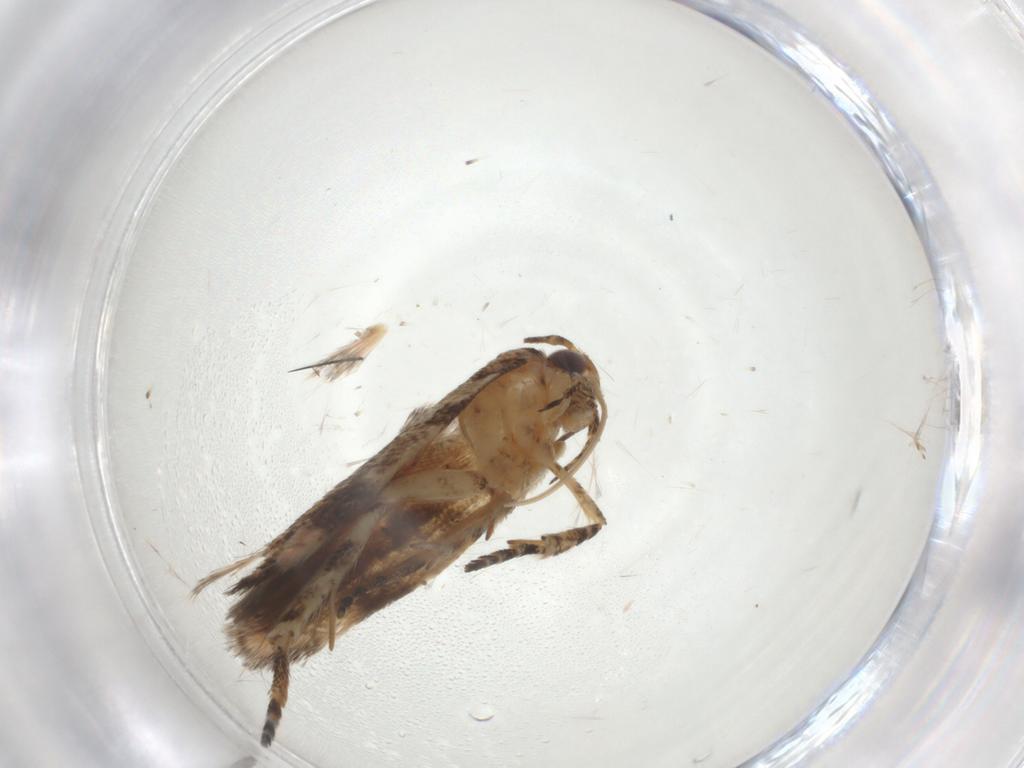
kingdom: Animalia
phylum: Arthropoda
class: Insecta
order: Lepidoptera
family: Gelechiidae
